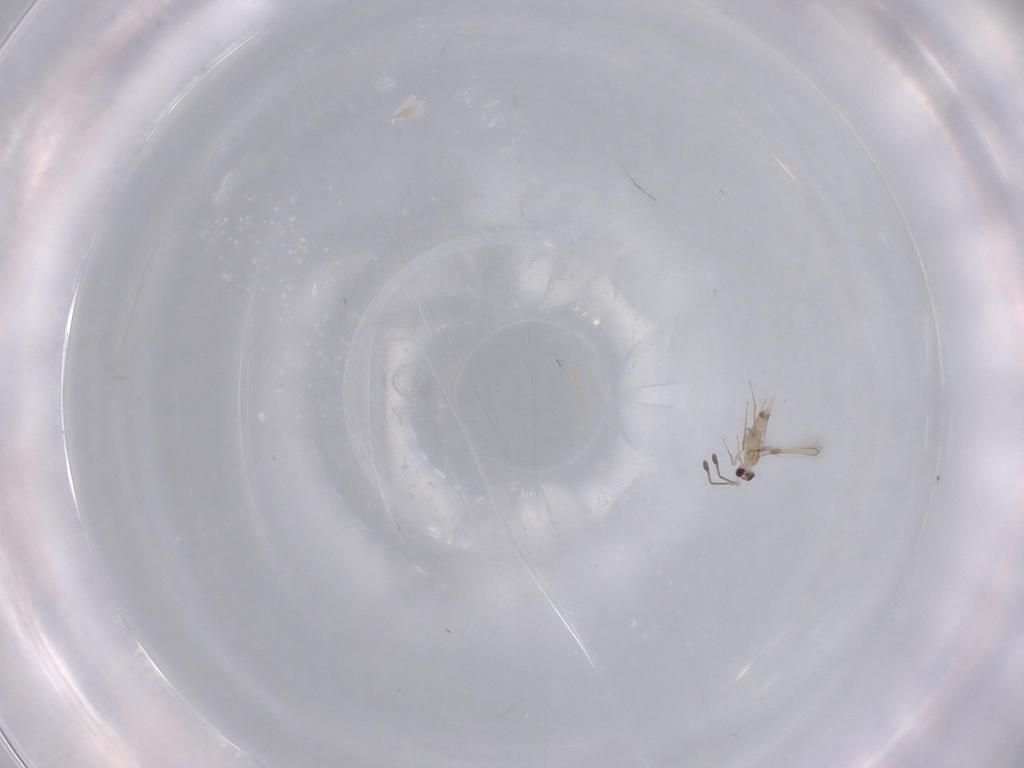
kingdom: Animalia
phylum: Arthropoda
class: Insecta
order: Hymenoptera
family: Mymaridae
